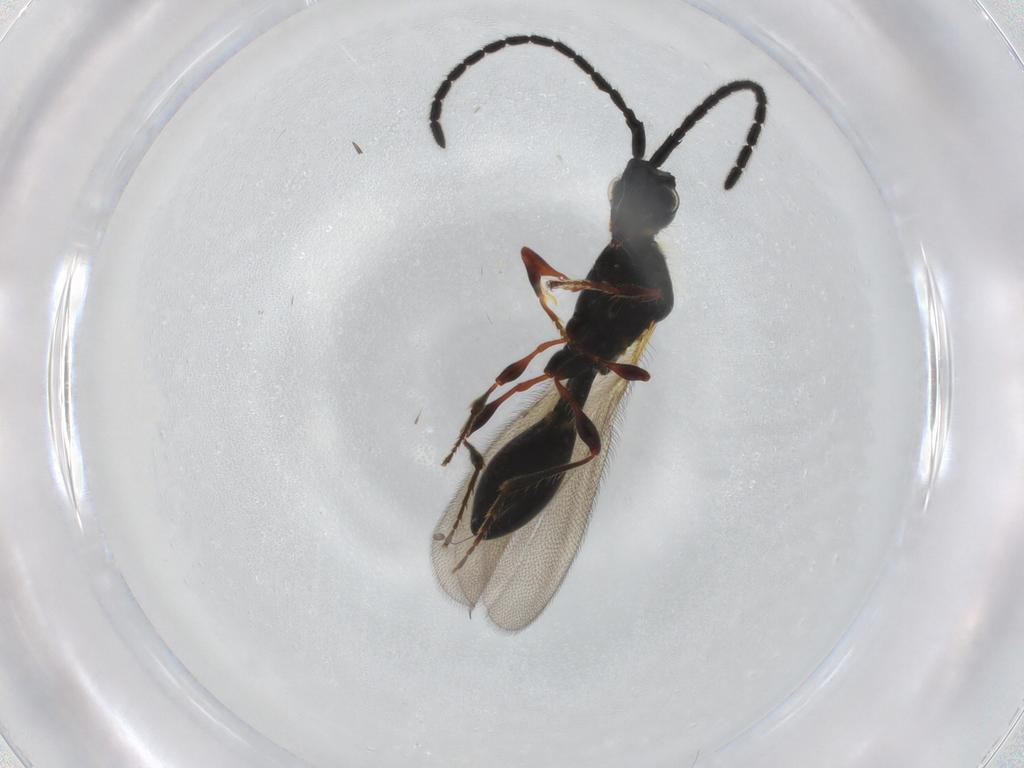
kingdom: Animalia
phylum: Arthropoda
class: Insecta
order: Hymenoptera
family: Diapriidae
